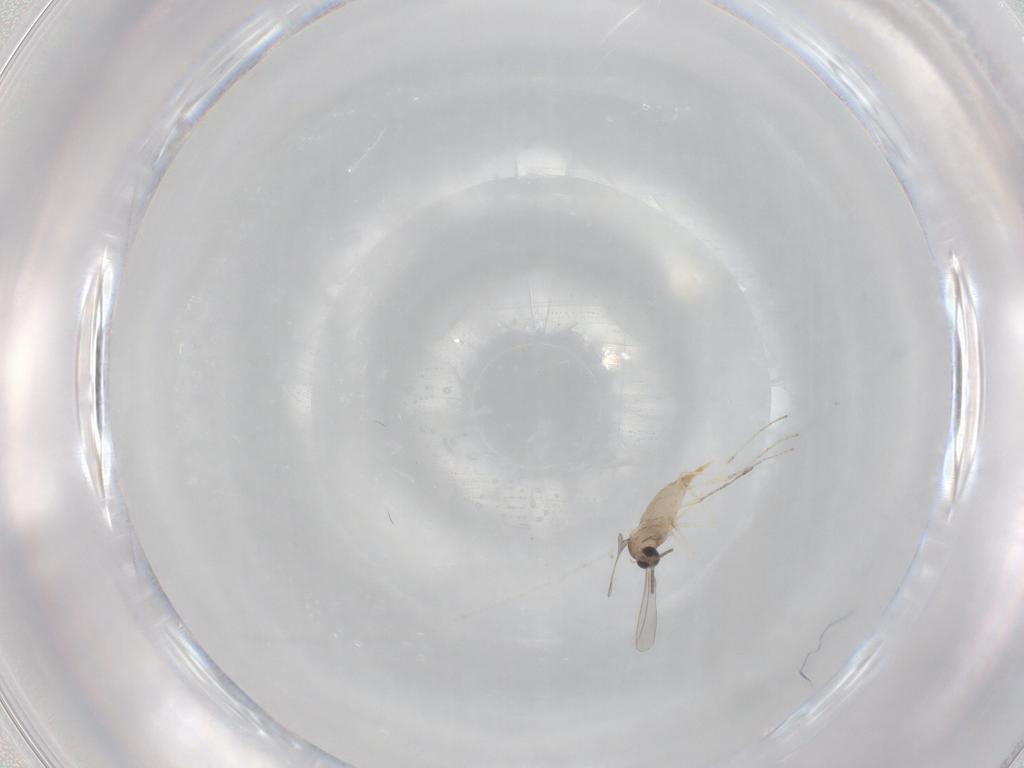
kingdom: Animalia
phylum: Arthropoda
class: Insecta
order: Diptera
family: Cecidomyiidae
